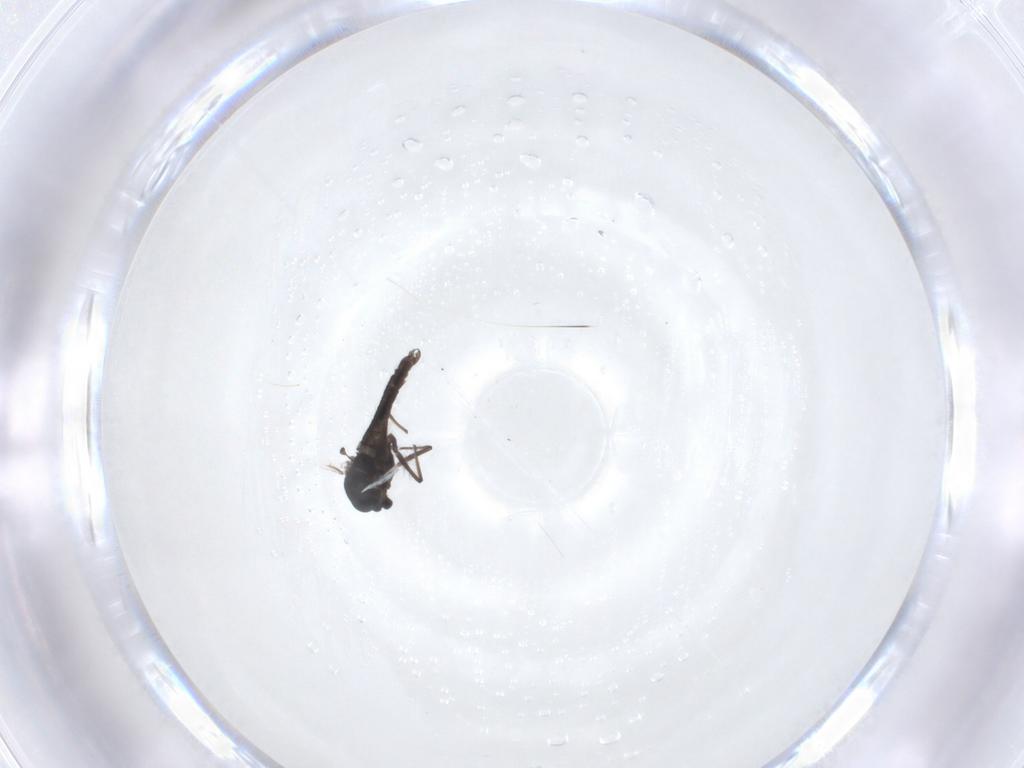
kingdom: Animalia
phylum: Arthropoda
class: Insecta
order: Diptera
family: Chironomidae
